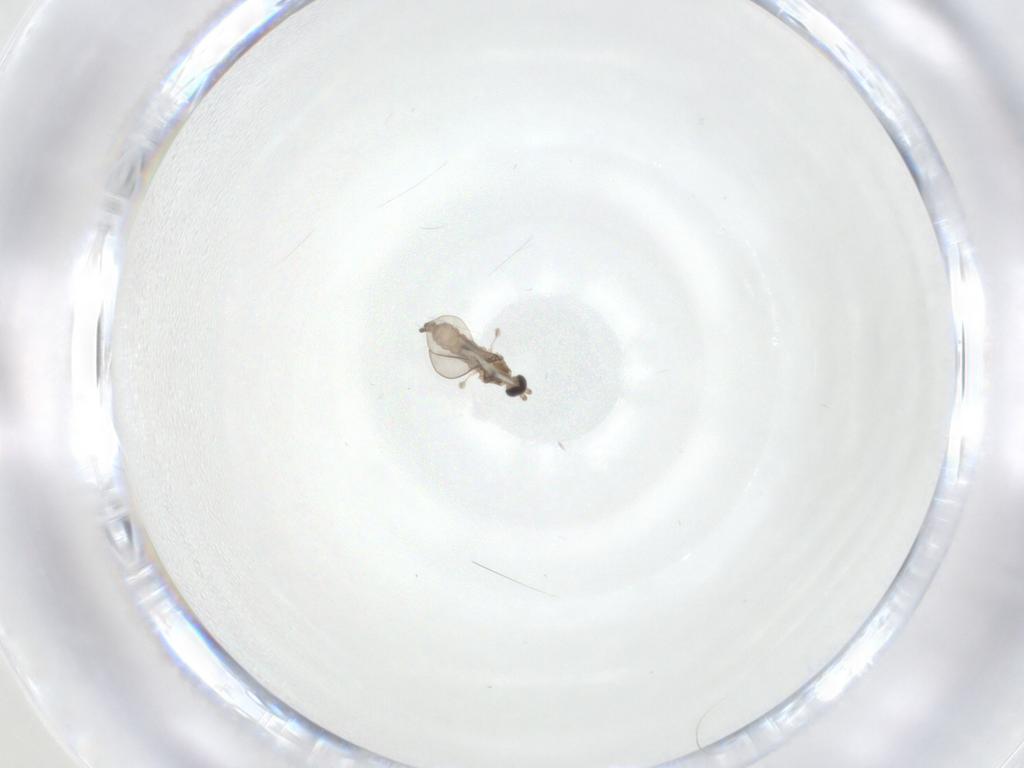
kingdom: Animalia
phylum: Arthropoda
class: Insecta
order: Diptera
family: Cecidomyiidae
